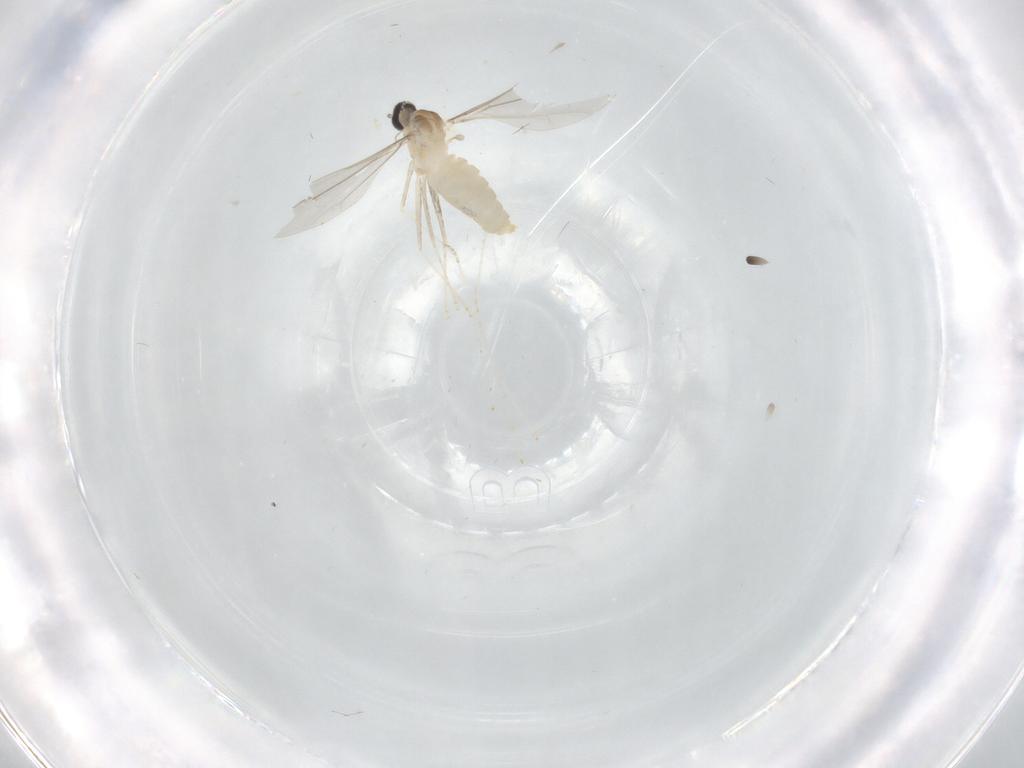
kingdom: Animalia
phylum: Arthropoda
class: Insecta
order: Diptera
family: Cecidomyiidae
